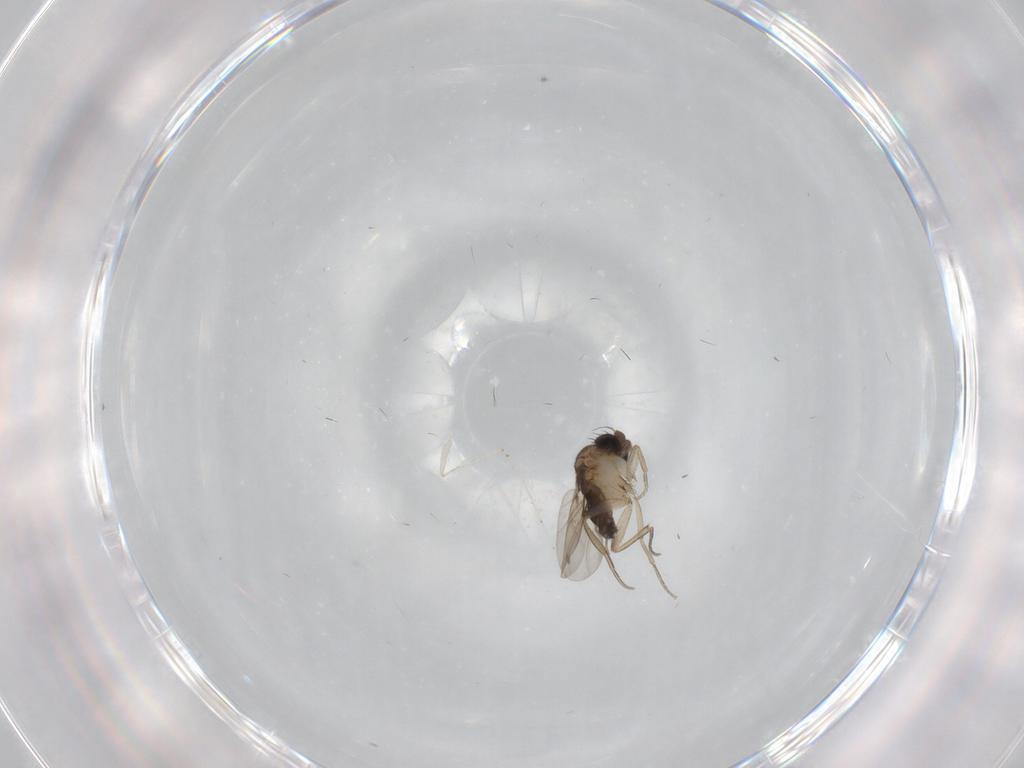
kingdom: Animalia
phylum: Arthropoda
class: Insecta
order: Diptera
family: Phoridae
